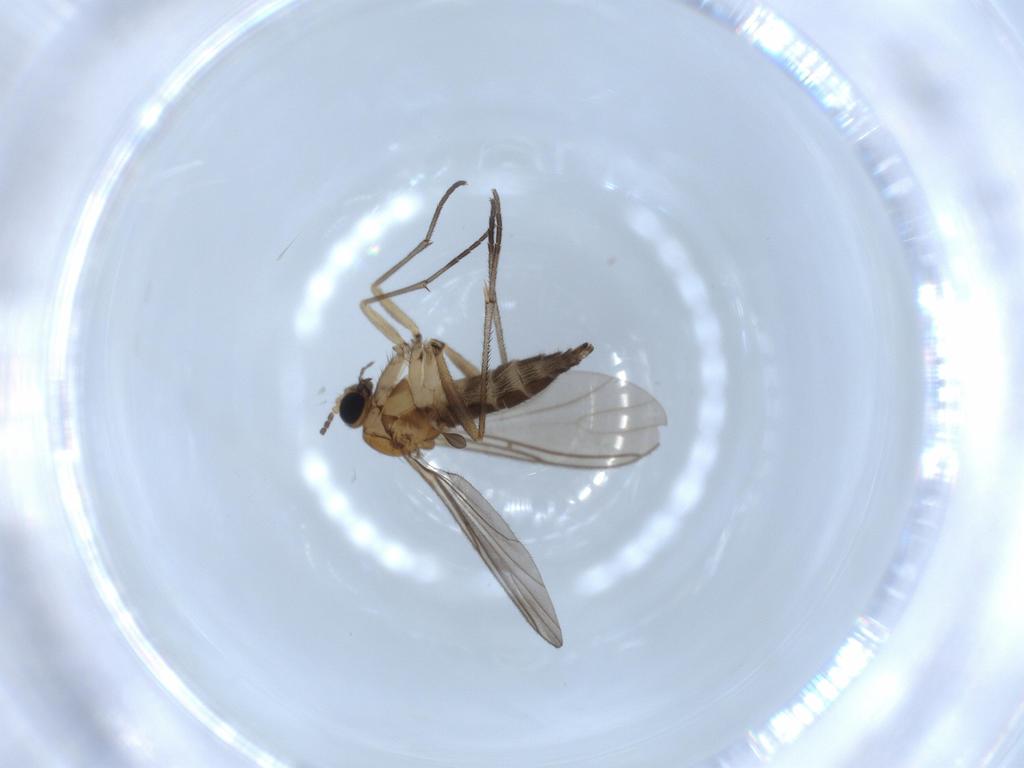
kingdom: Animalia
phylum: Arthropoda
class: Insecta
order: Diptera
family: Sciaridae
